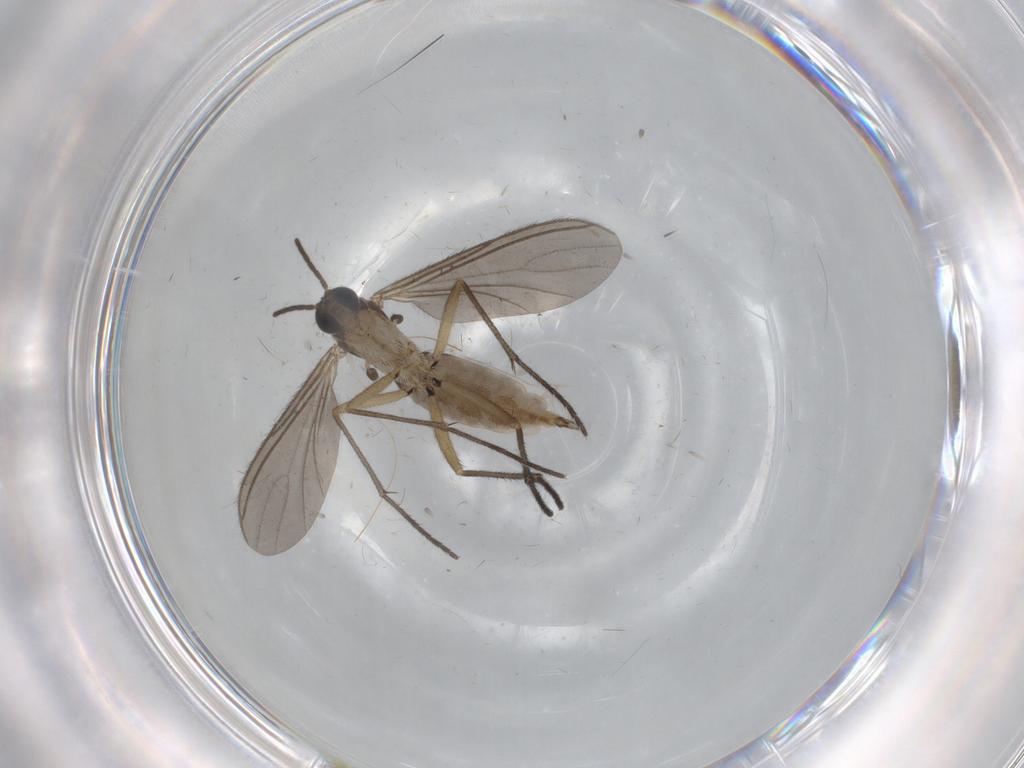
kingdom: Animalia
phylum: Arthropoda
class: Insecta
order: Diptera
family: Sciaridae
